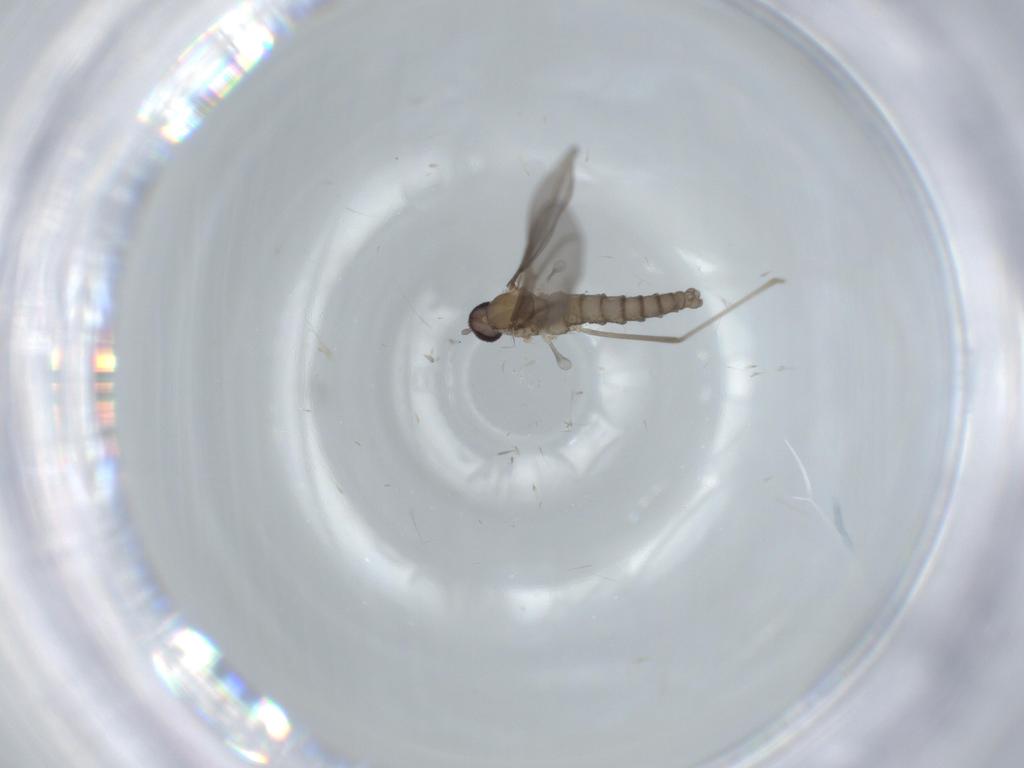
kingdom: Animalia
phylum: Arthropoda
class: Insecta
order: Diptera
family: Cecidomyiidae
